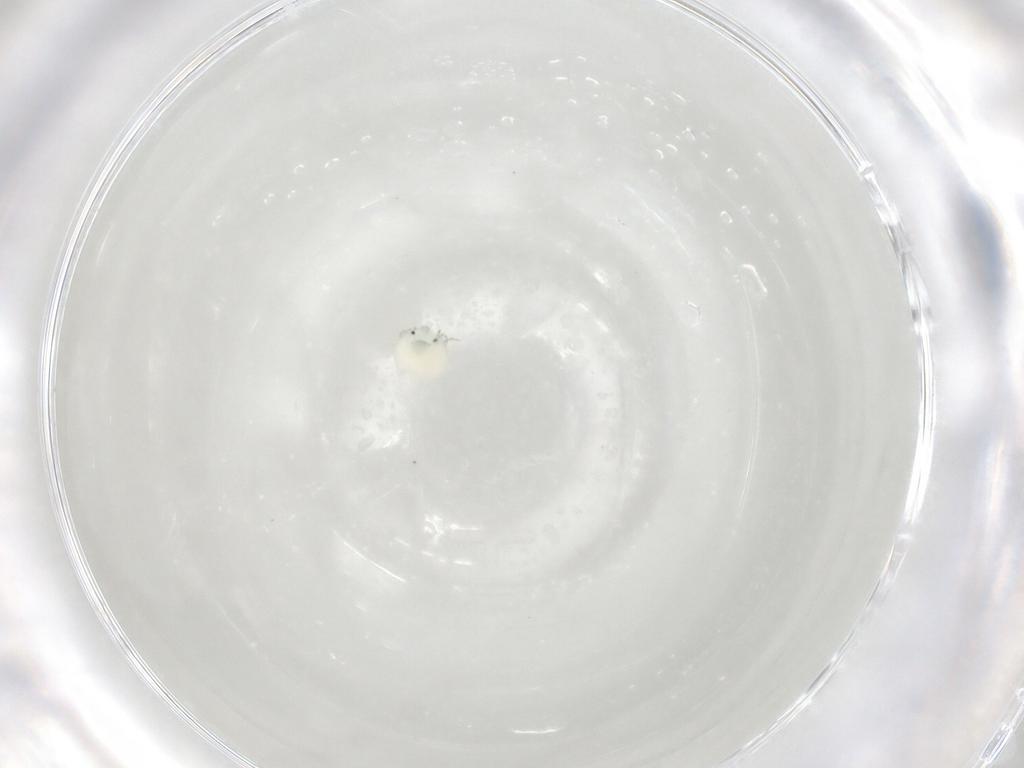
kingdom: Animalia
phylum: Arthropoda
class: Arachnida
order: Trombidiformes
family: Arrenuridae
